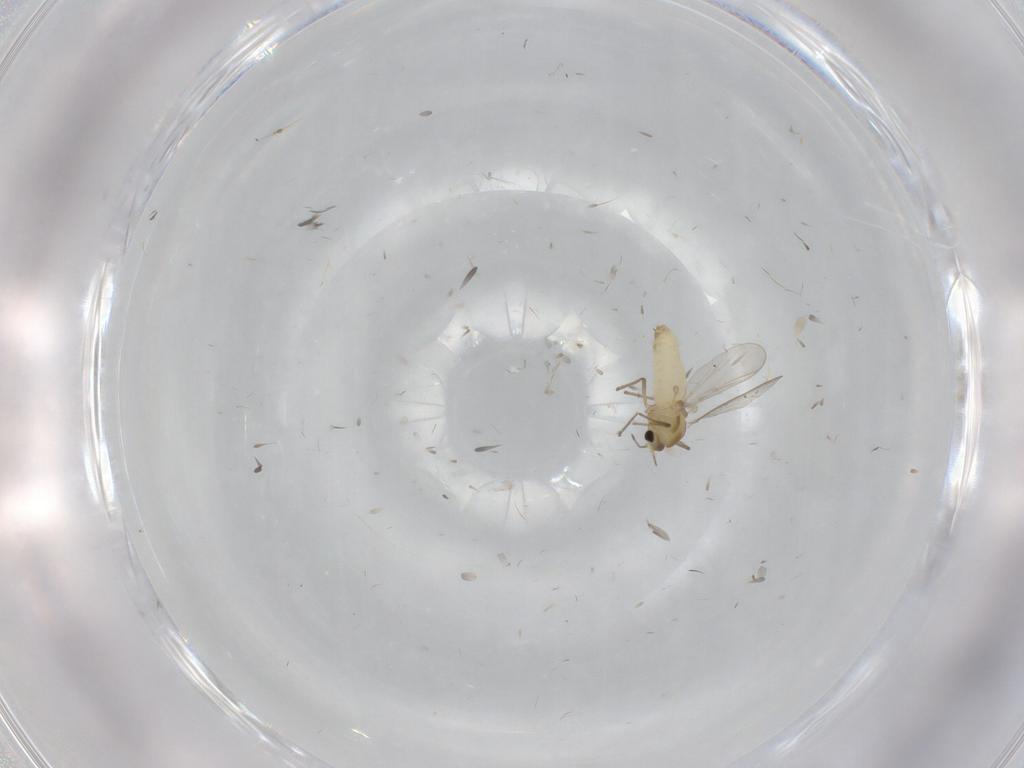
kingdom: Animalia
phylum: Arthropoda
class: Insecta
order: Diptera
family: Chironomidae
